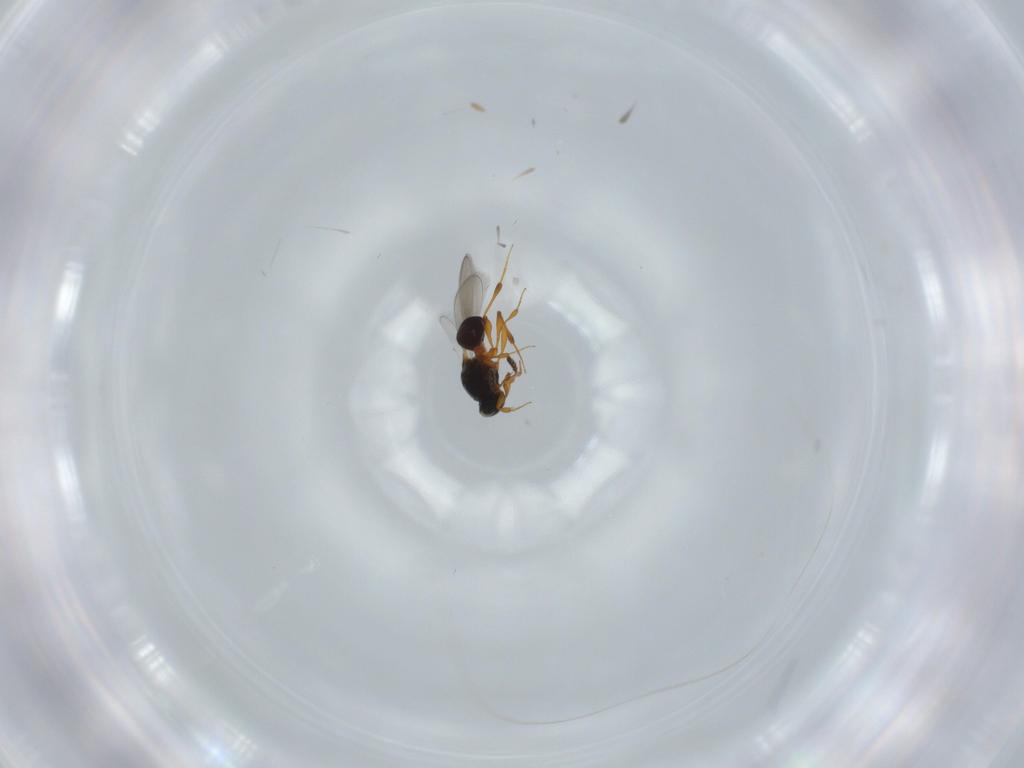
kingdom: Animalia
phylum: Arthropoda
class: Insecta
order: Hymenoptera
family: Platygastridae
